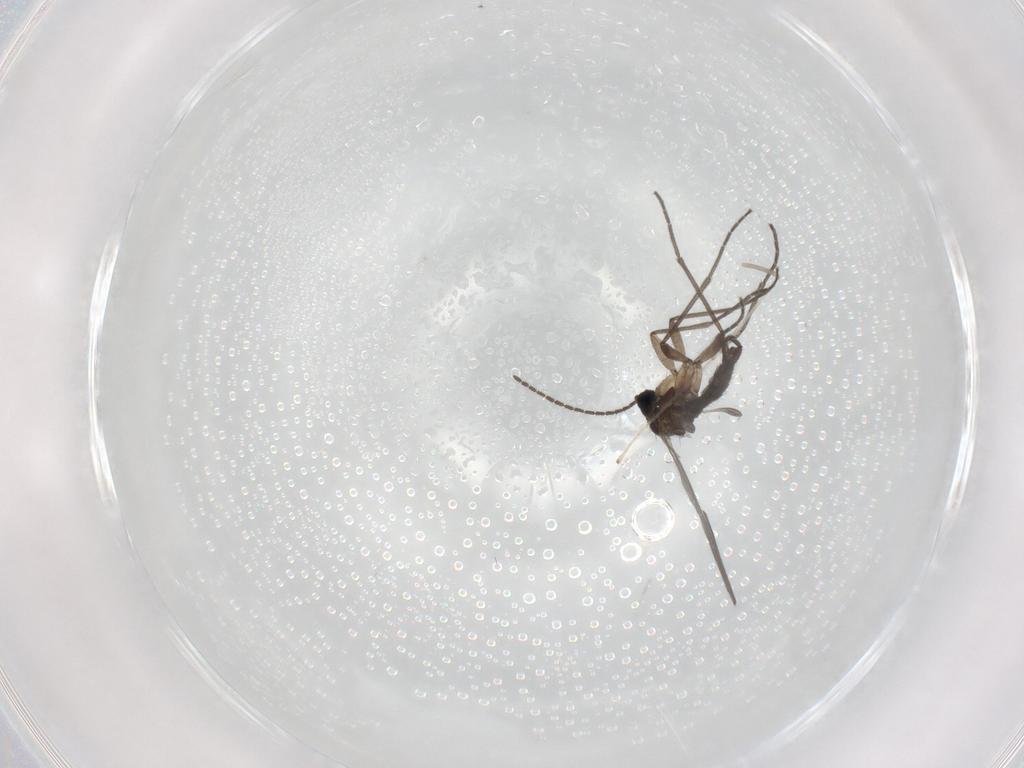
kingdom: Animalia
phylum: Arthropoda
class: Insecta
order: Diptera
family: Sciaridae
